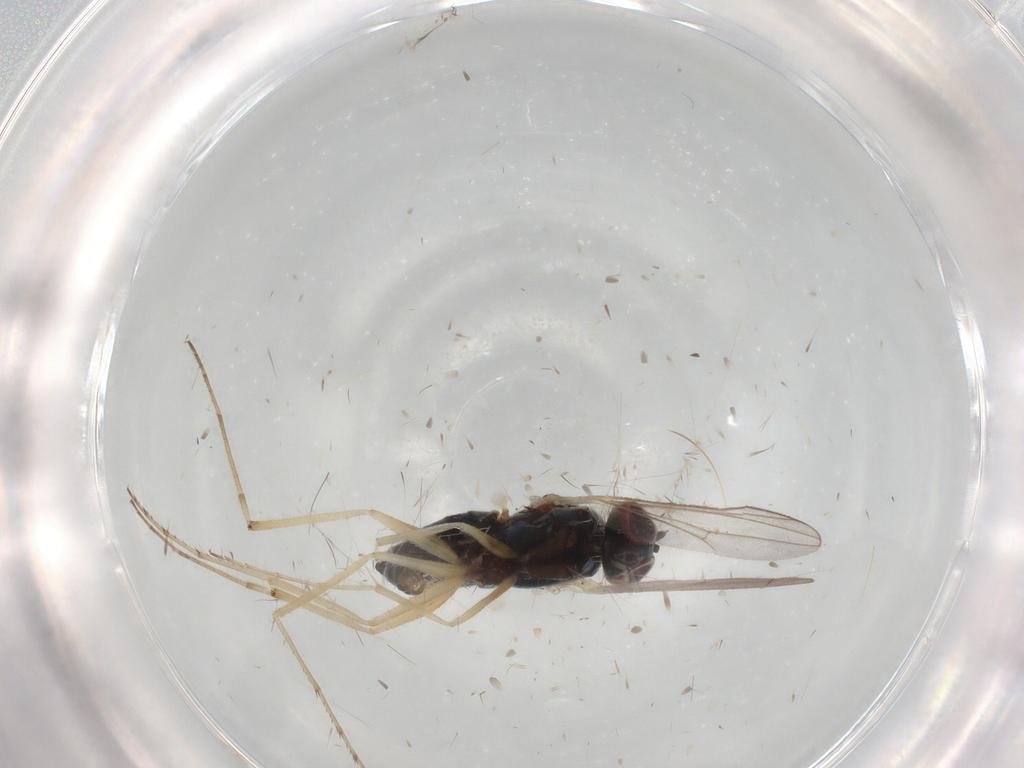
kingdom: Animalia
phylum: Arthropoda
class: Insecta
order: Diptera
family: Dolichopodidae
